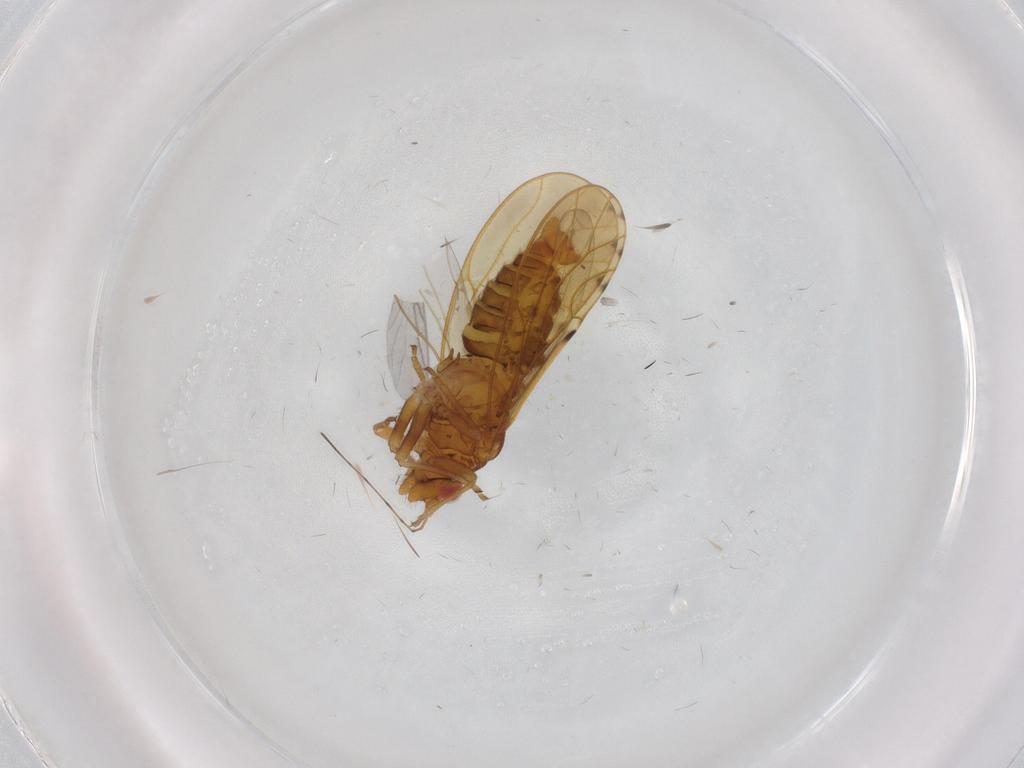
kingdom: Animalia
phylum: Arthropoda
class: Insecta
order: Hemiptera
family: Psylloidea_incertae_sedis
